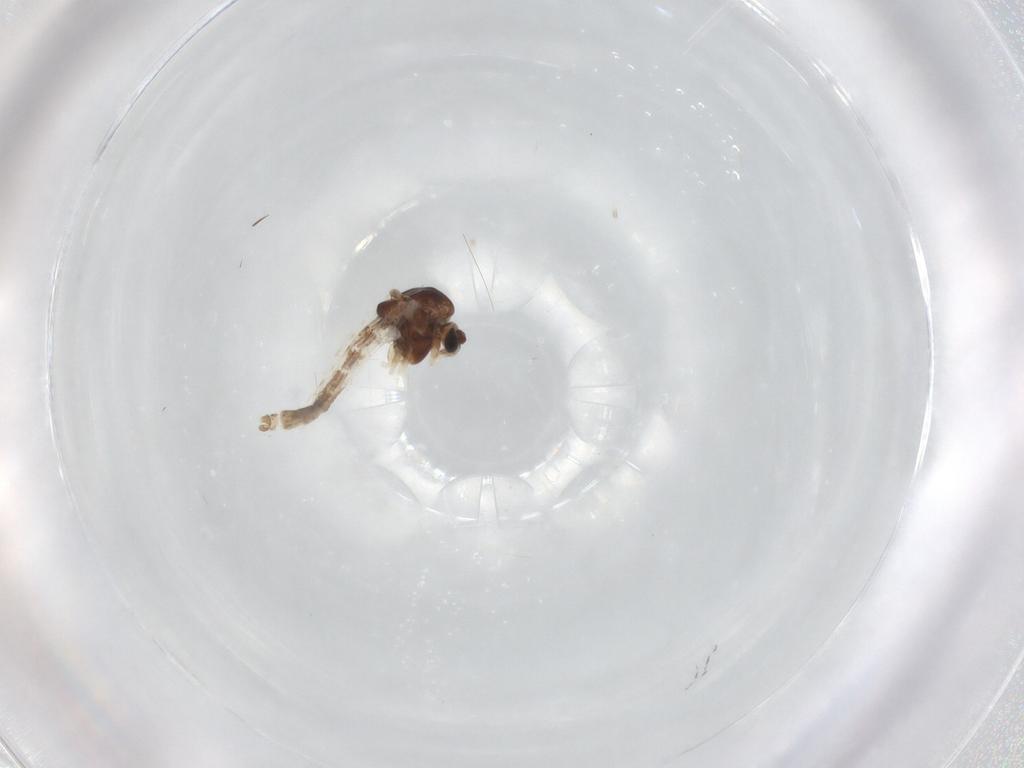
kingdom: Animalia
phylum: Arthropoda
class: Insecta
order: Diptera
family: Chironomidae
